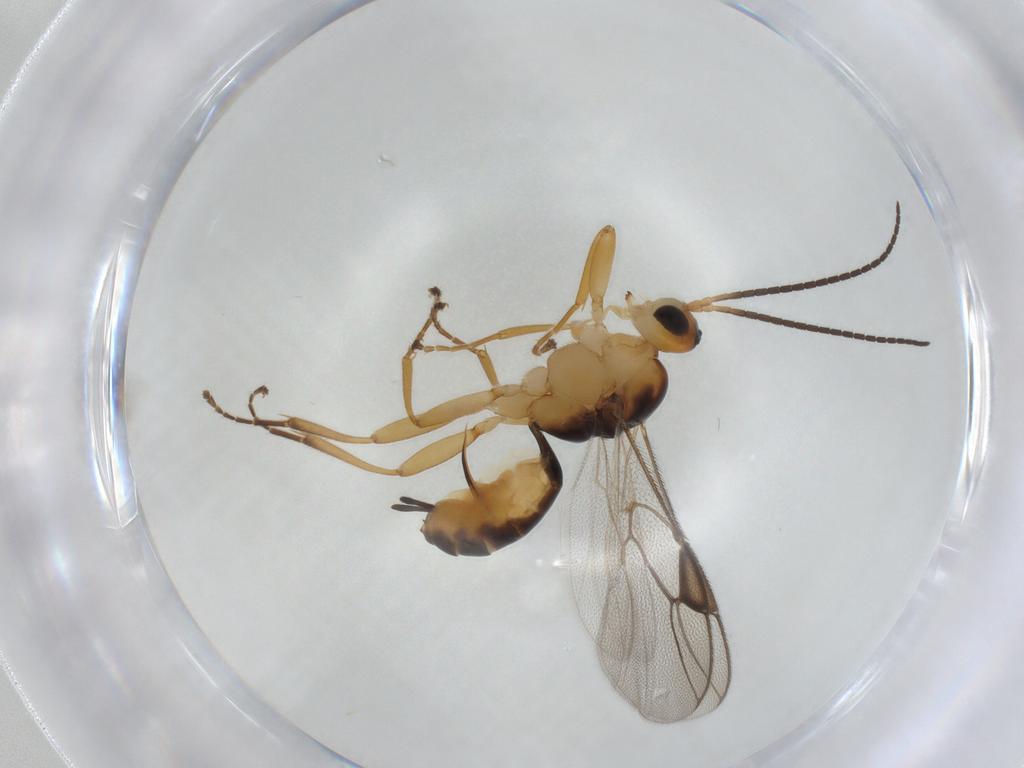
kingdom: Animalia
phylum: Arthropoda
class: Insecta
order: Hymenoptera
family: Braconidae
